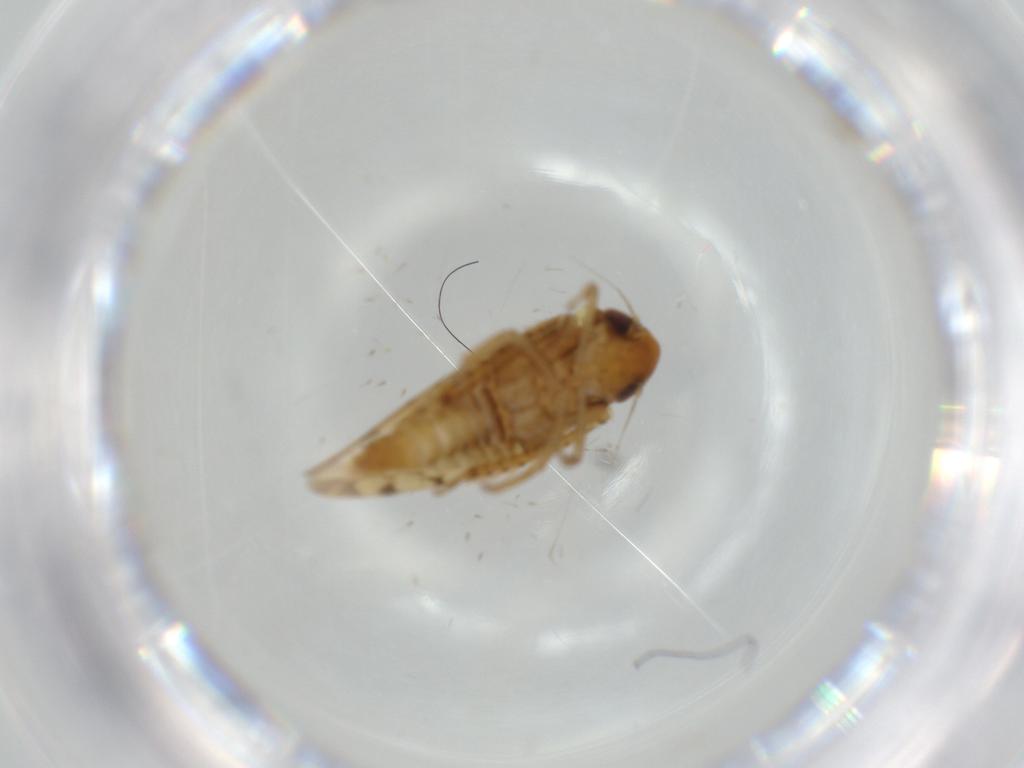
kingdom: Animalia
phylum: Arthropoda
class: Insecta
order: Hemiptera
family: Cicadellidae
